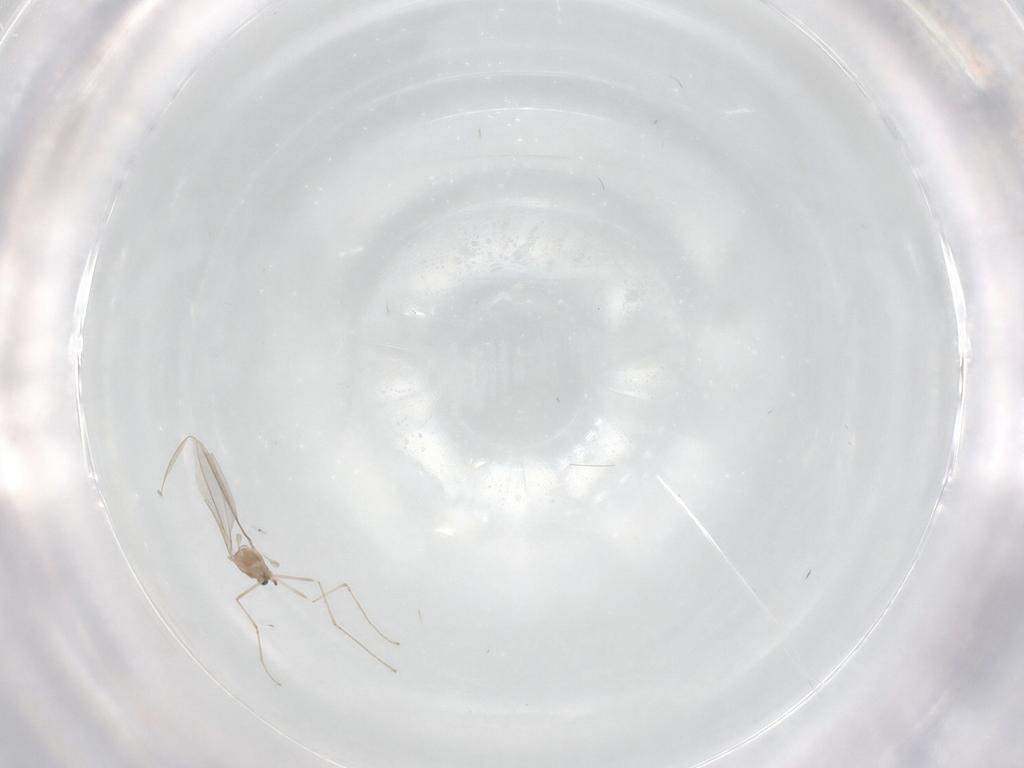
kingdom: Animalia
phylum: Arthropoda
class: Insecta
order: Diptera
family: Cecidomyiidae
